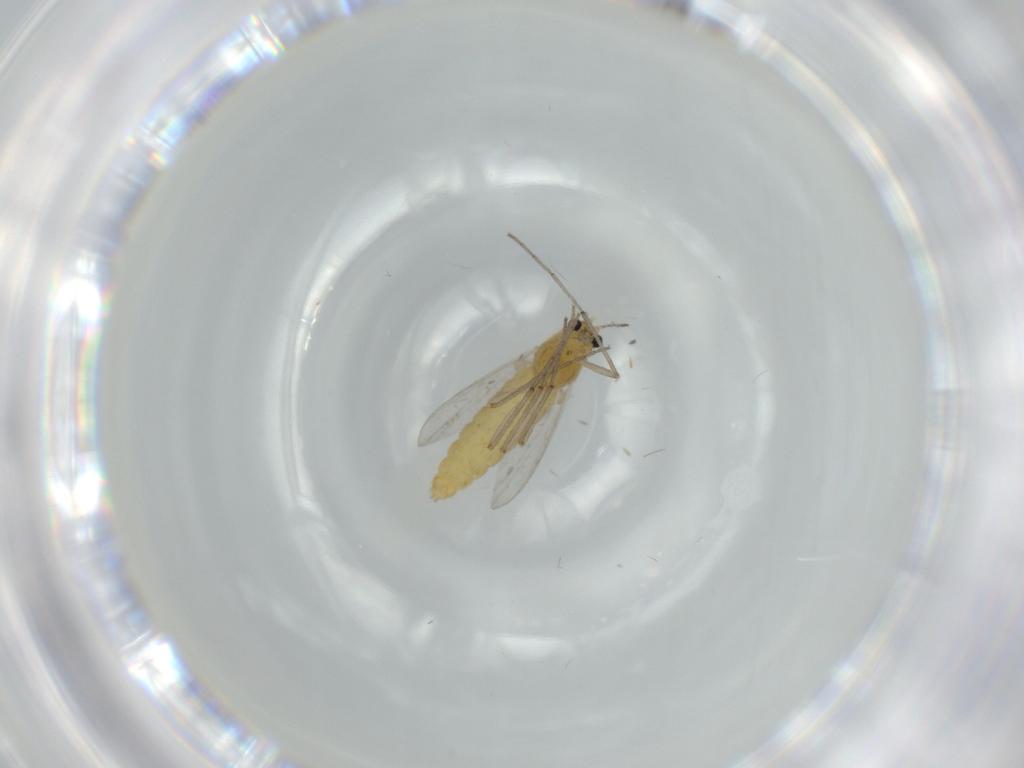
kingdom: Animalia
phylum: Arthropoda
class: Insecta
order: Diptera
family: Chironomidae
